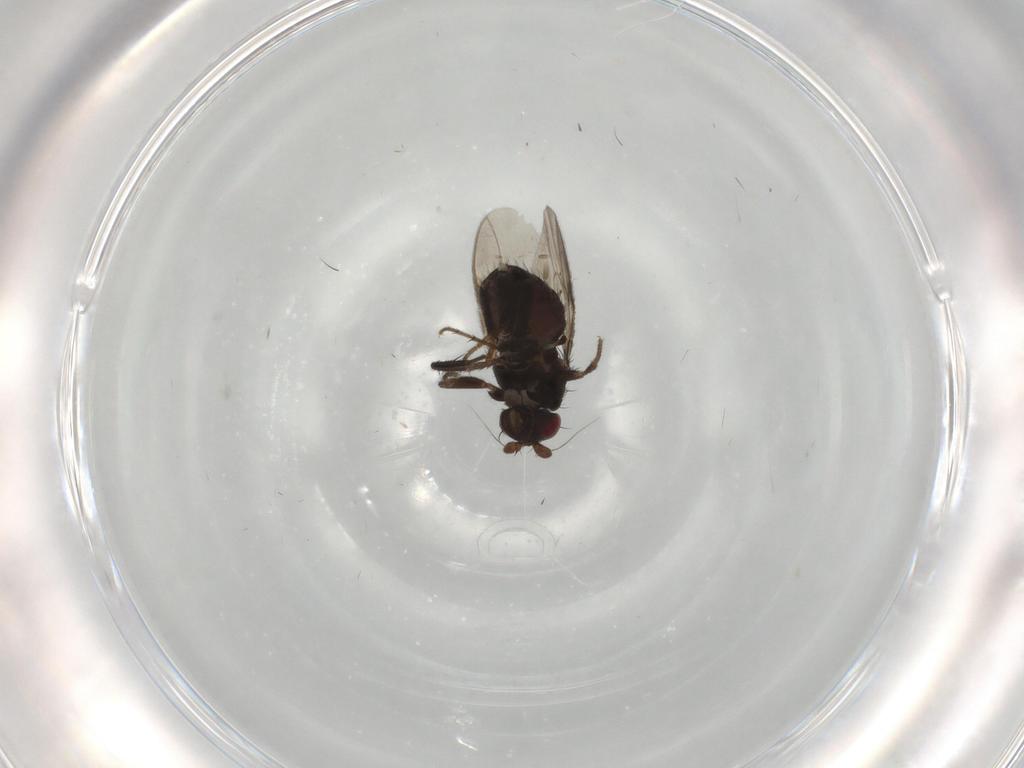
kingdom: Animalia
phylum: Arthropoda
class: Insecta
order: Diptera
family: Sphaeroceridae
